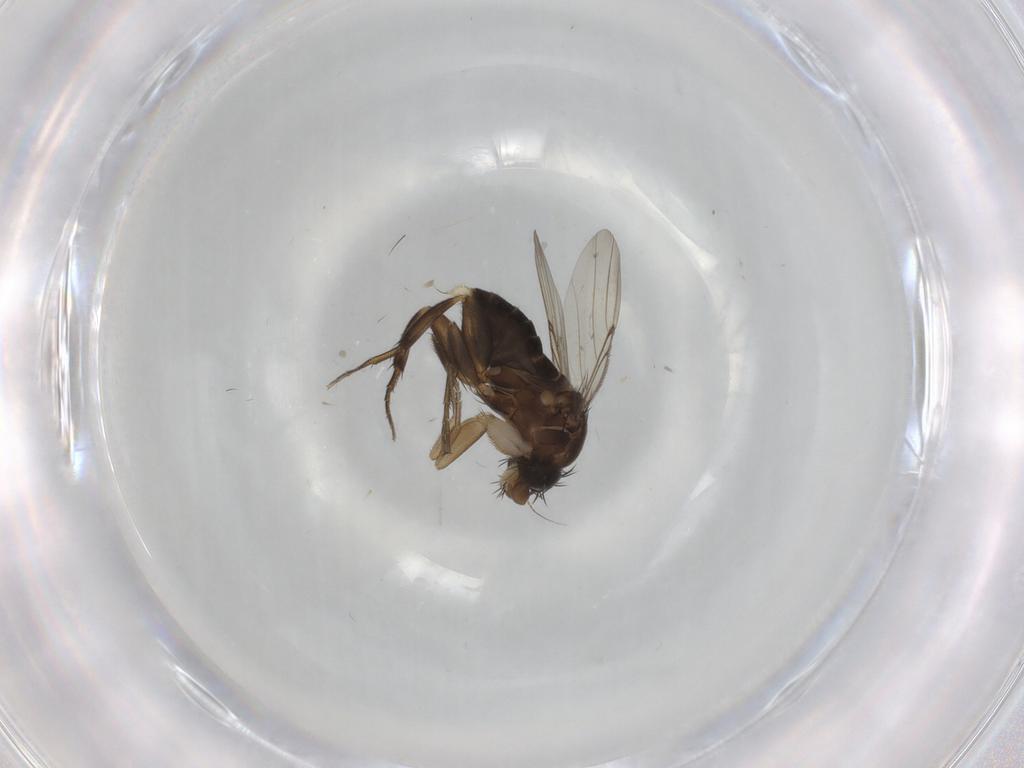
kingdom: Animalia
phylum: Arthropoda
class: Insecta
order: Diptera
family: Phoridae
